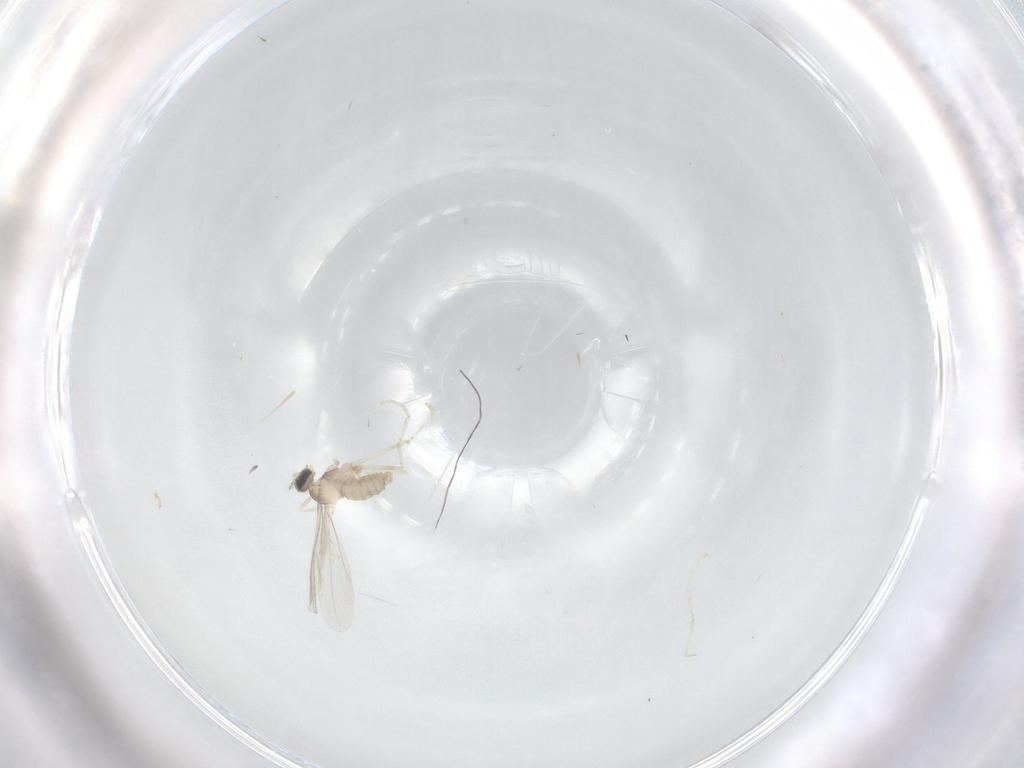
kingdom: Animalia
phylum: Arthropoda
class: Insecta
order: Diptera
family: Cecidomyiidae
